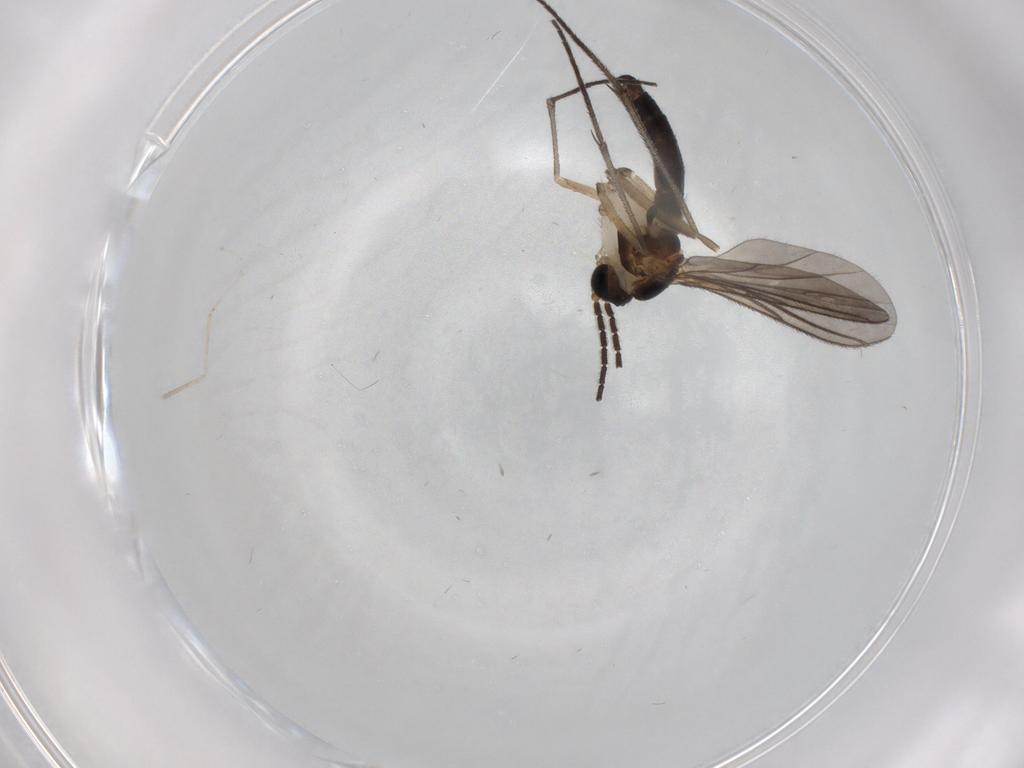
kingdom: Animalia
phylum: Arthropoda
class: Insecta
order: Diptera
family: Sciaridae
